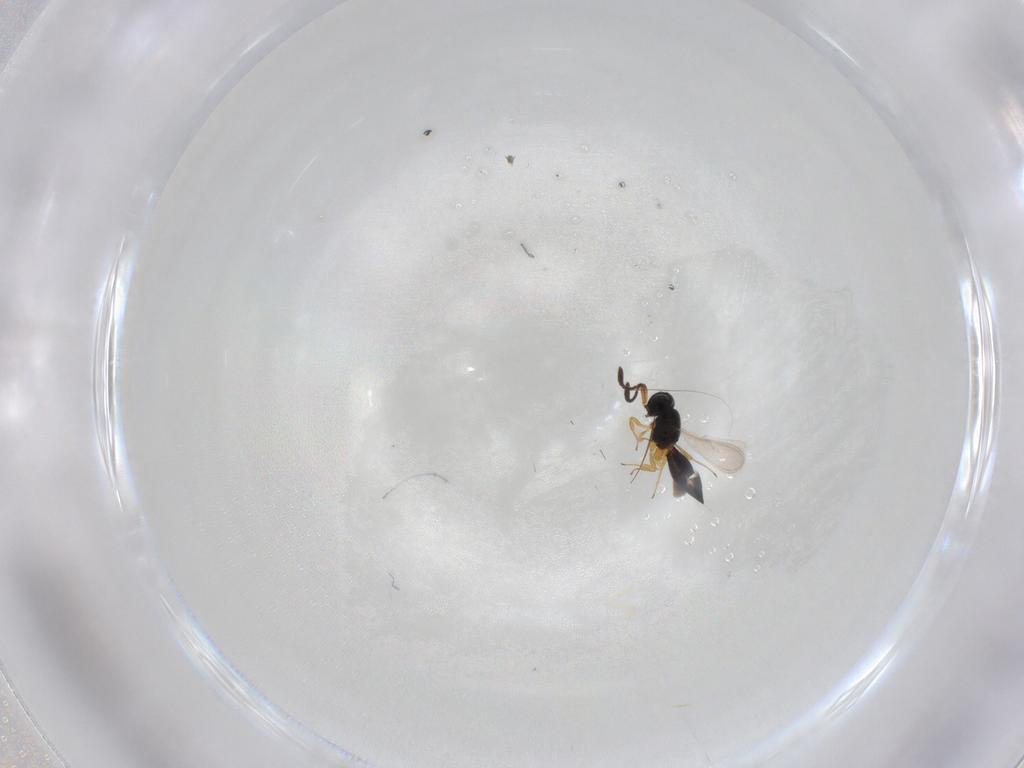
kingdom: Animalia
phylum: Arthropoda
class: Insecta
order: Hymenoptera
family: Scelionidae
